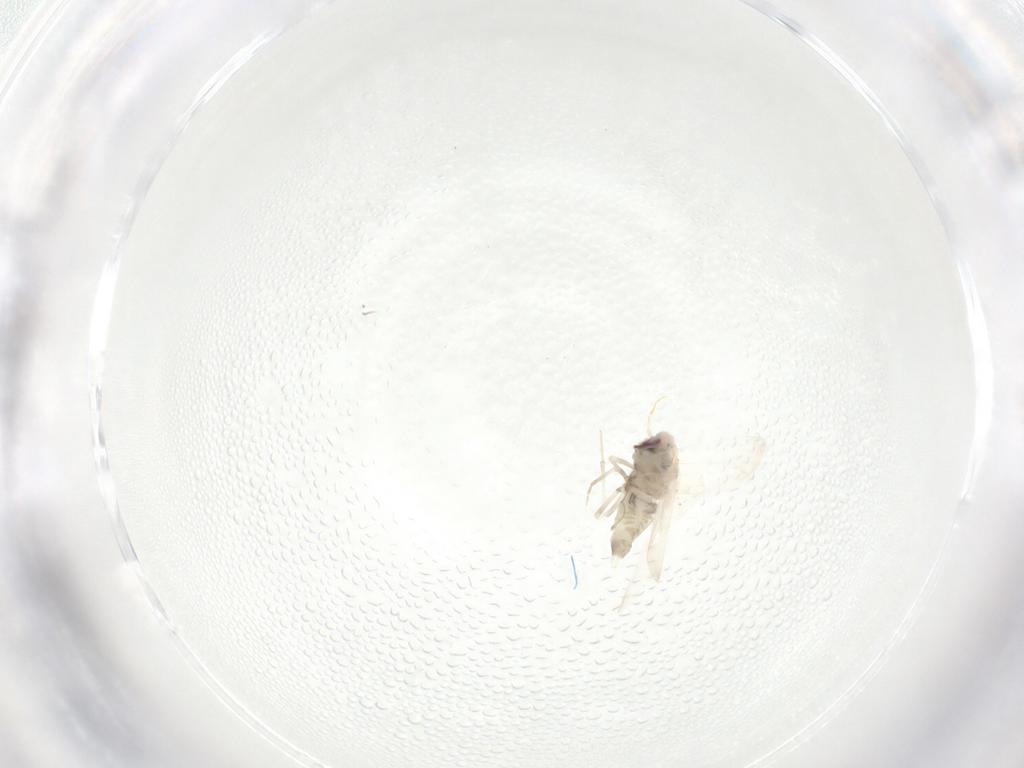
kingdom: Animalia
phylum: Arthropoda
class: Insecta
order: Hemiptera
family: Aleyrodidae
